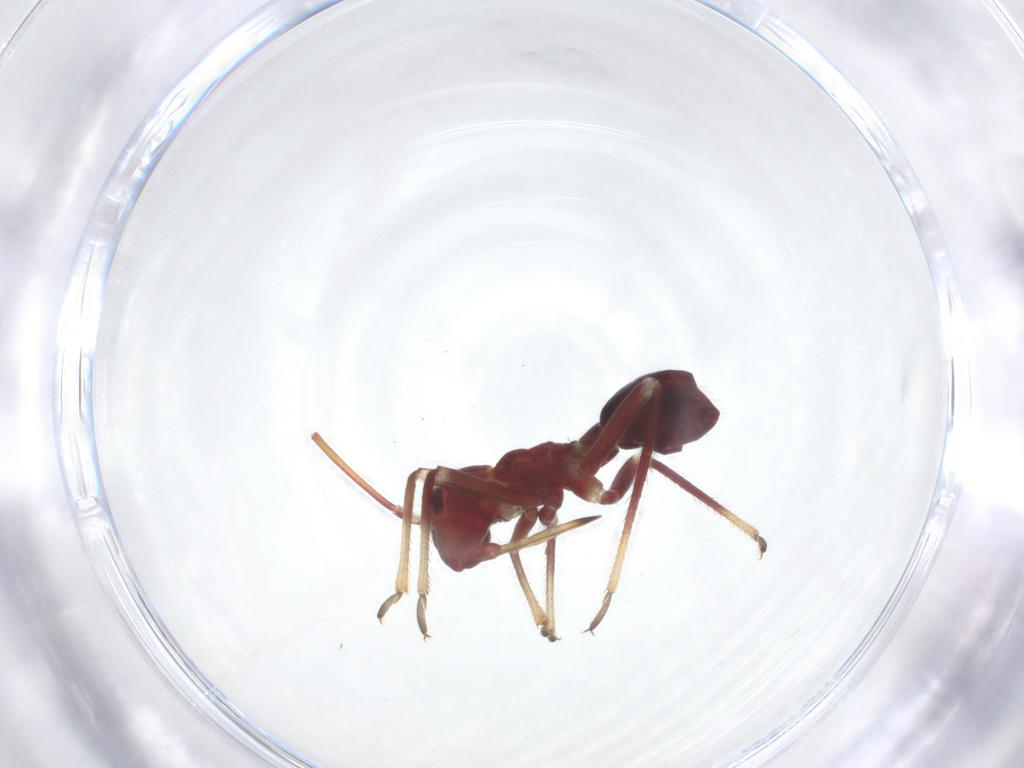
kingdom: Animalia
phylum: Arthropoda
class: Insecta
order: Hemiptera
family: Miridae
